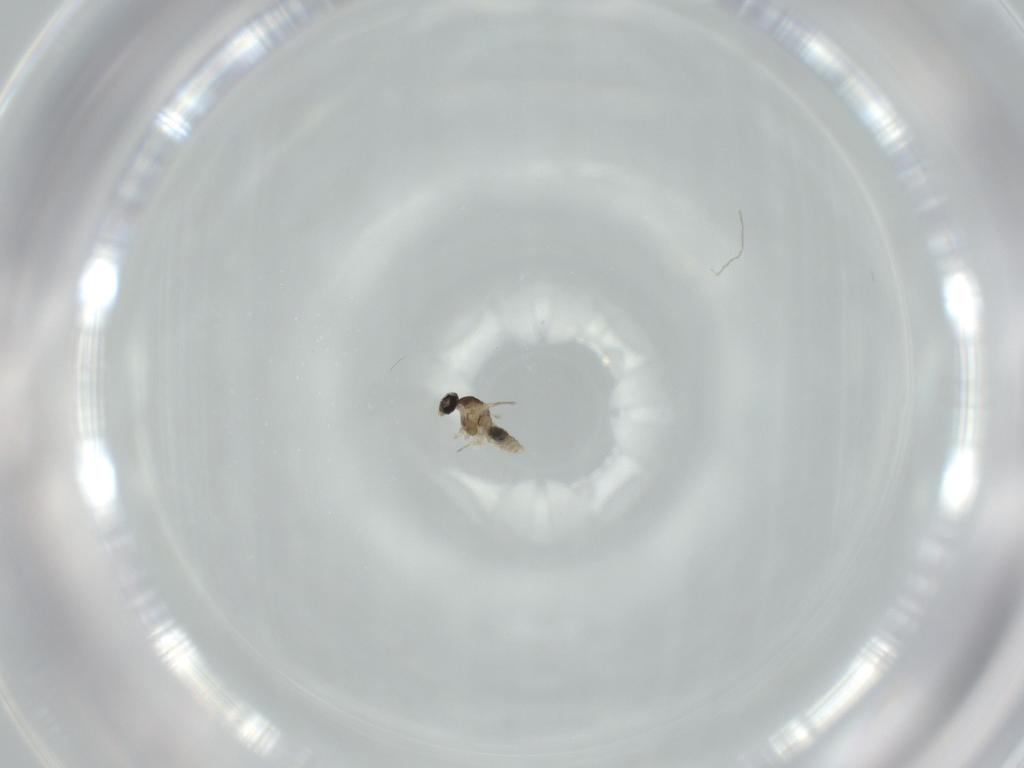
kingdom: Animalia
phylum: Arthropoda
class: Insecta
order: Diptera
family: Cecidomyiidae
